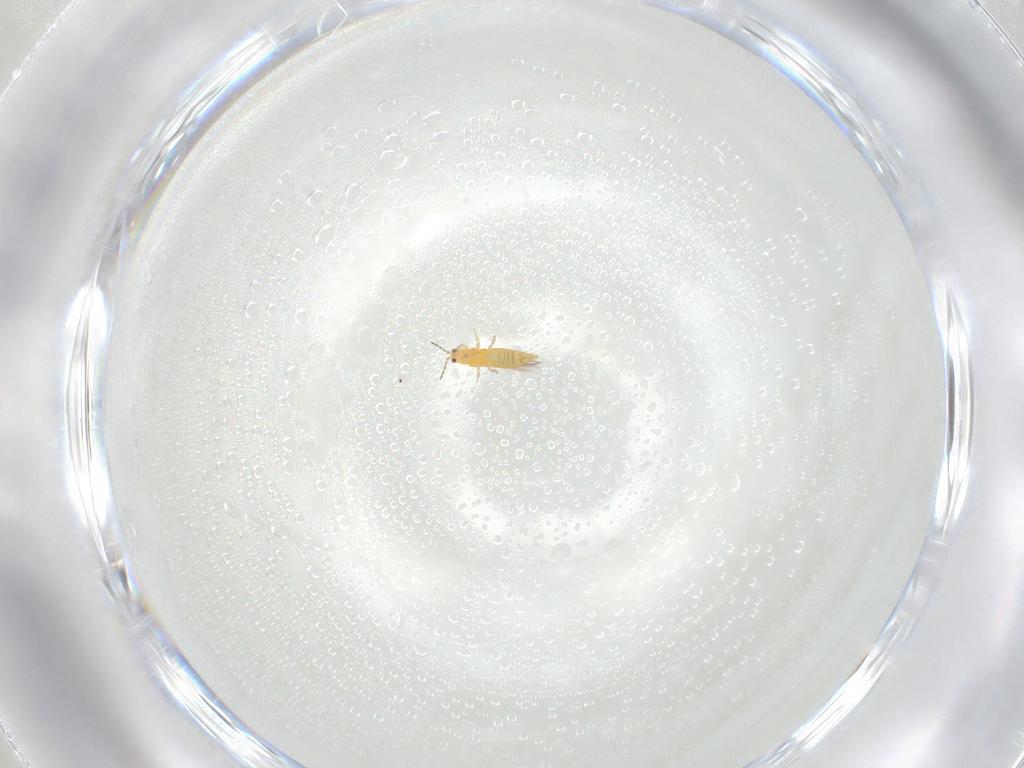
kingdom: Animalia
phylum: Arthropoda
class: Insecta
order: Thysanoptera
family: Thripidae
